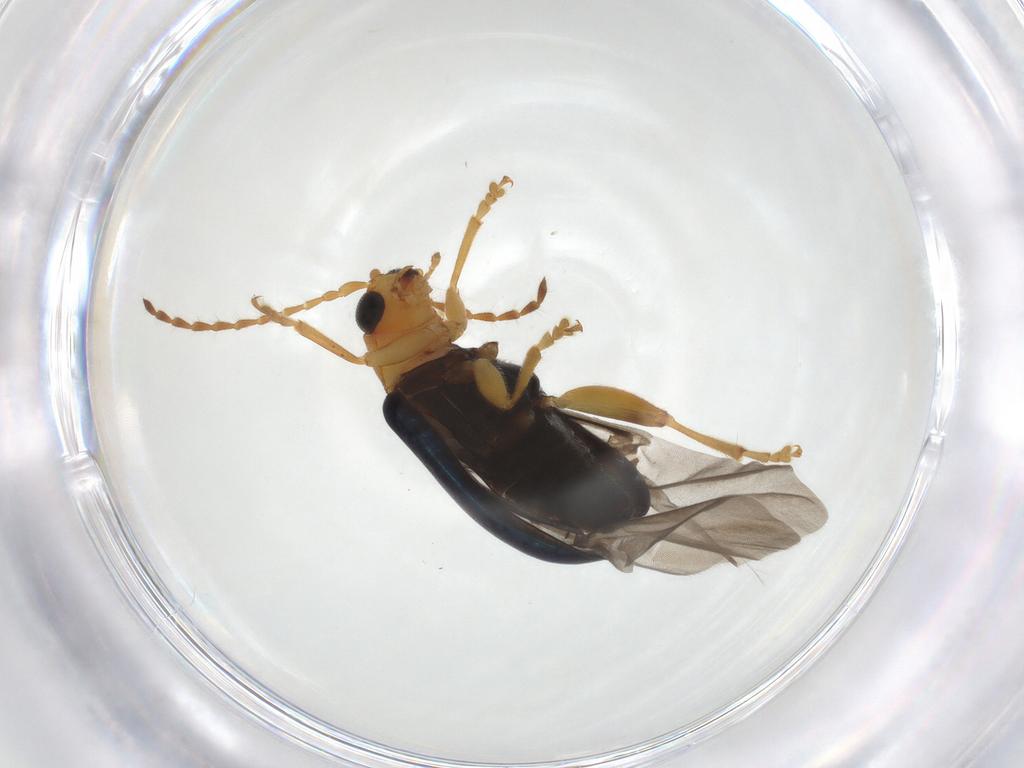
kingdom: Animalia
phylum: Arthropoda
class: Insecta
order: Coleoptera
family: Chrysomelidae
